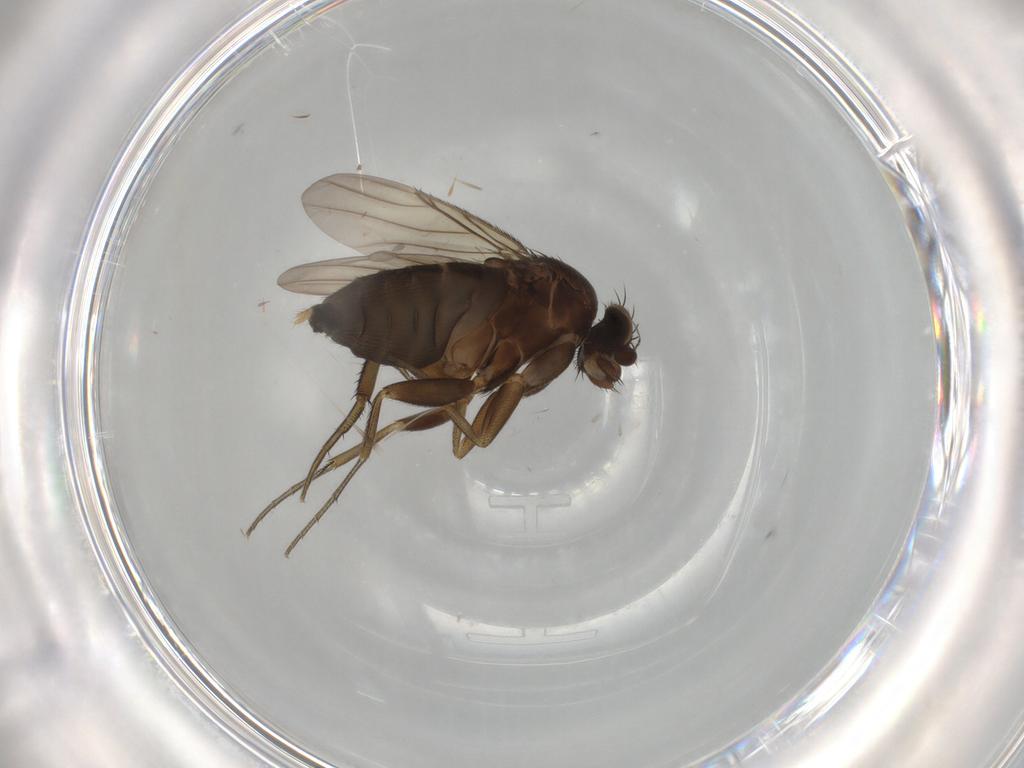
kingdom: Animalia
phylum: Arthropoda
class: Insecta
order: Diptera
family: Phoridae
